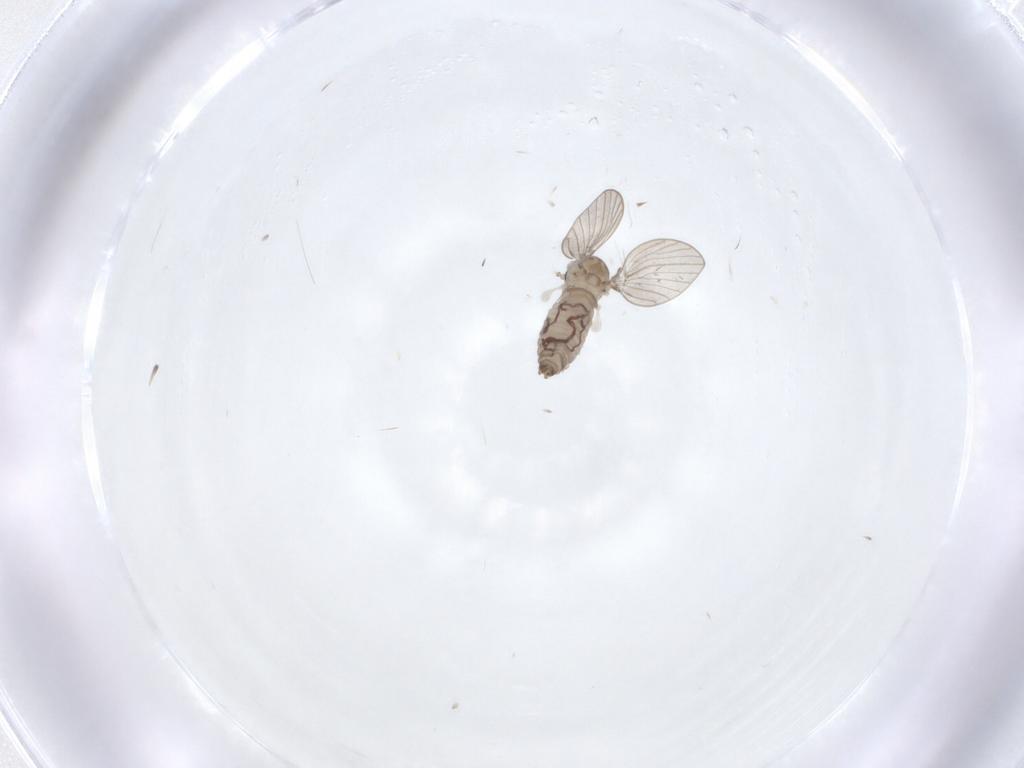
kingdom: Animalia
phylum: Arthropoda
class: Insecta
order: Diptera
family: Psychodidae
